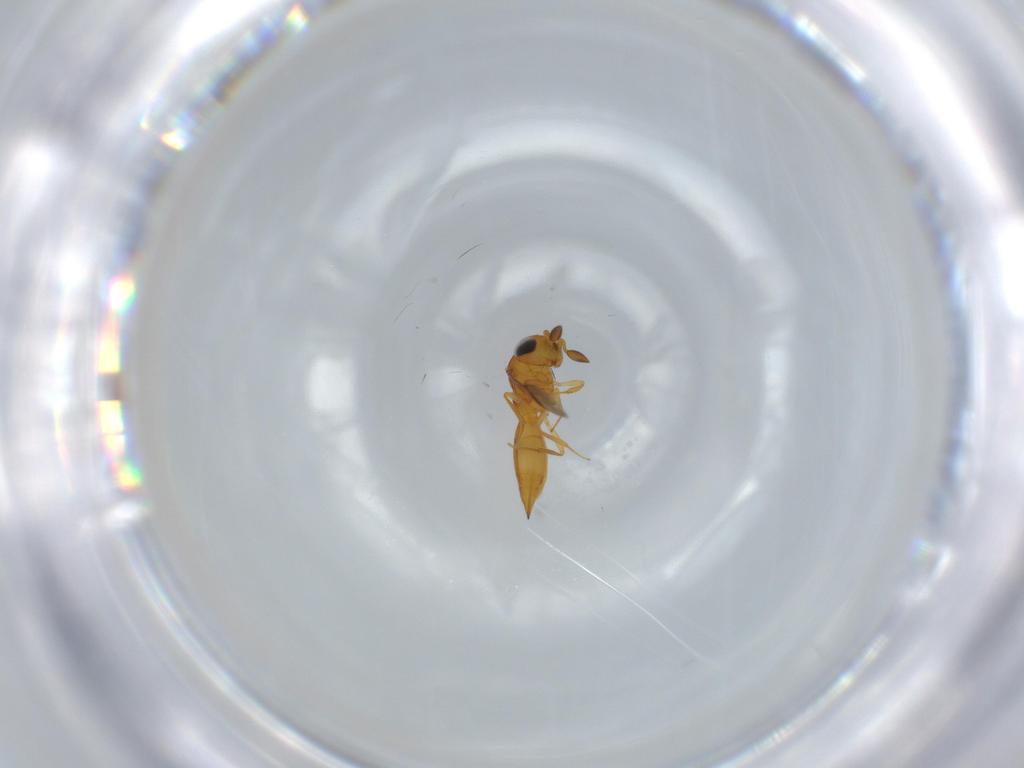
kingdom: Animalia
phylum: Arthropoda
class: Insecta
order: Hymenoptera
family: Scelionidae
